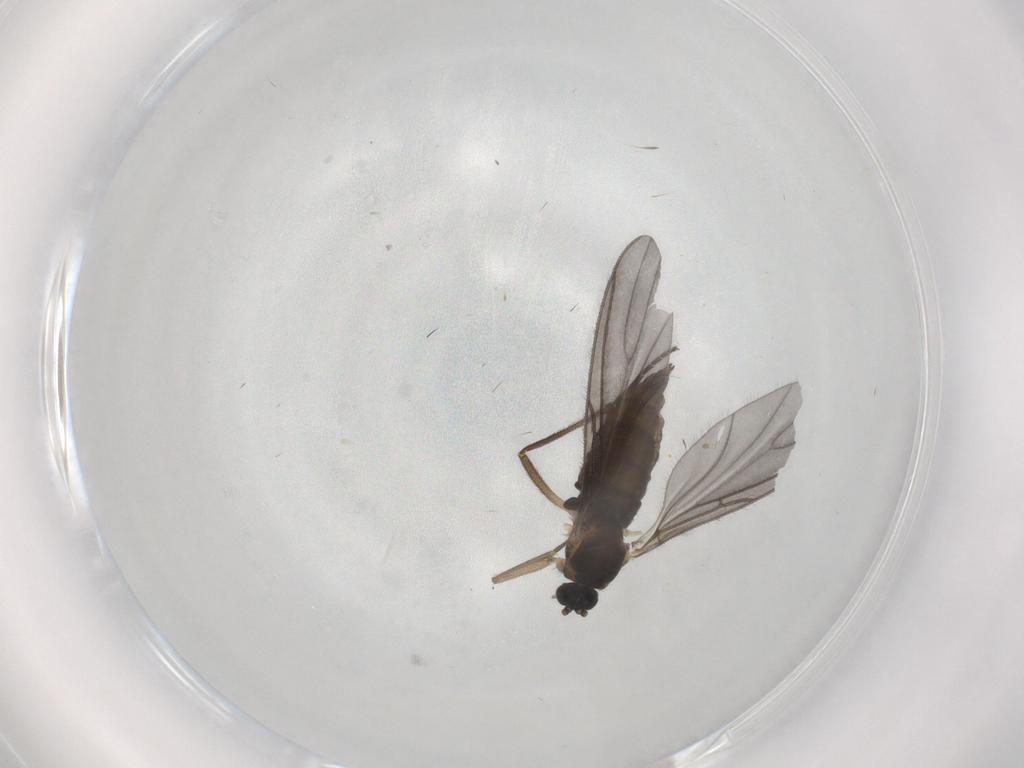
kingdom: Animalia
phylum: Arthropoda
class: Insecta
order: Diptera
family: Sciaridae
